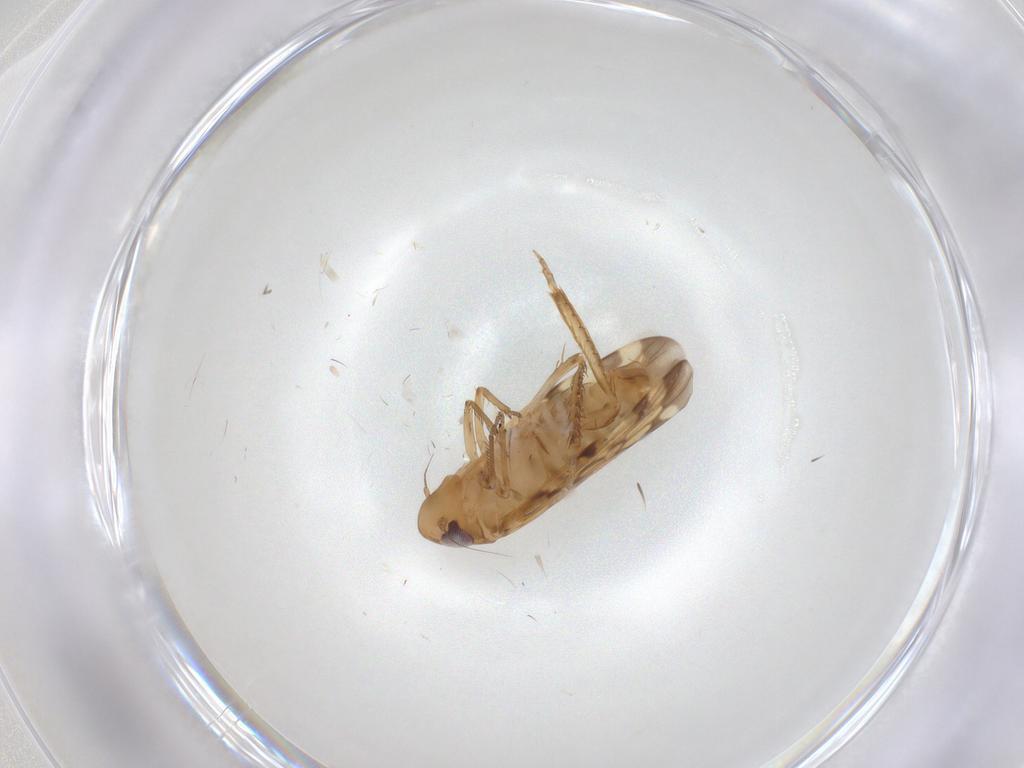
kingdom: Animalia
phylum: Arthropoda
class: Insecta
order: Hemiptera
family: Cicadellidae
